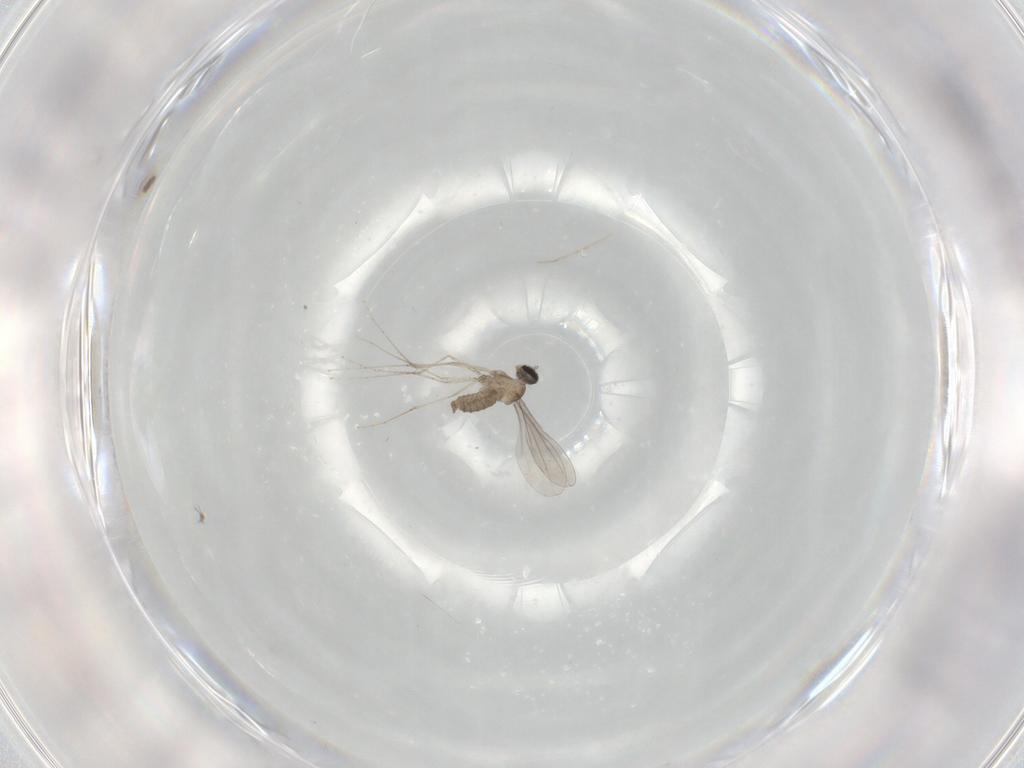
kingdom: Animalia
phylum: Arthropoda
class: Insecta
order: Diptera
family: Cecidomyiidae
